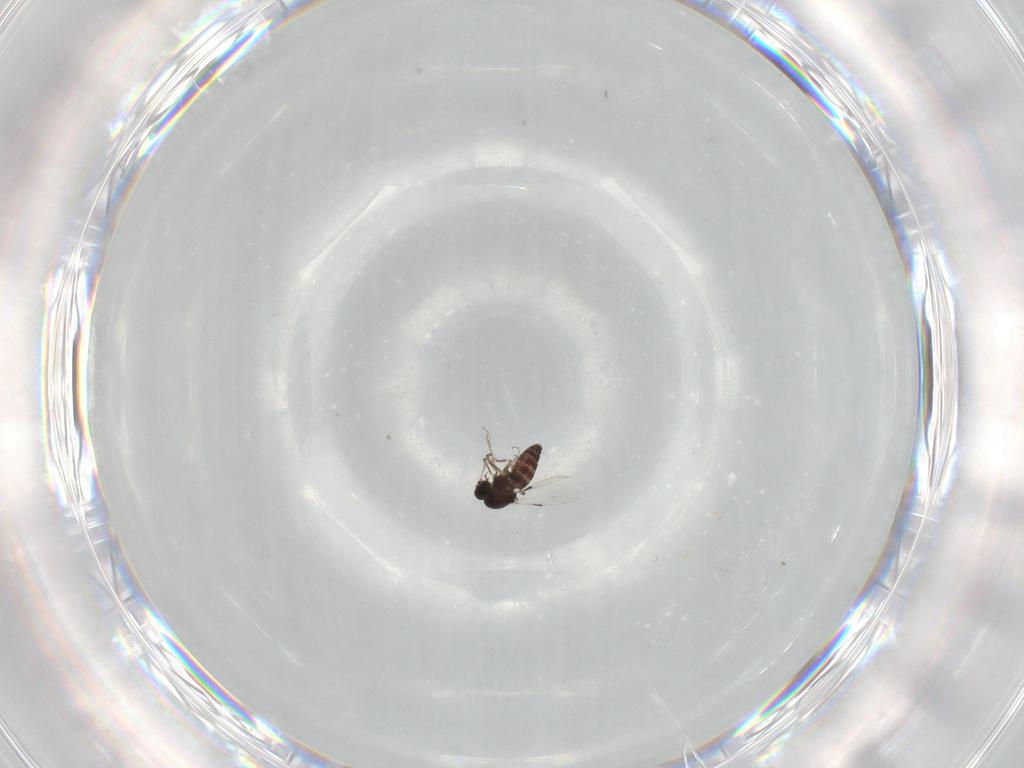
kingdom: Animalia
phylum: Arthropoda
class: Insecta
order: Diptera
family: Ceratopogonidae
